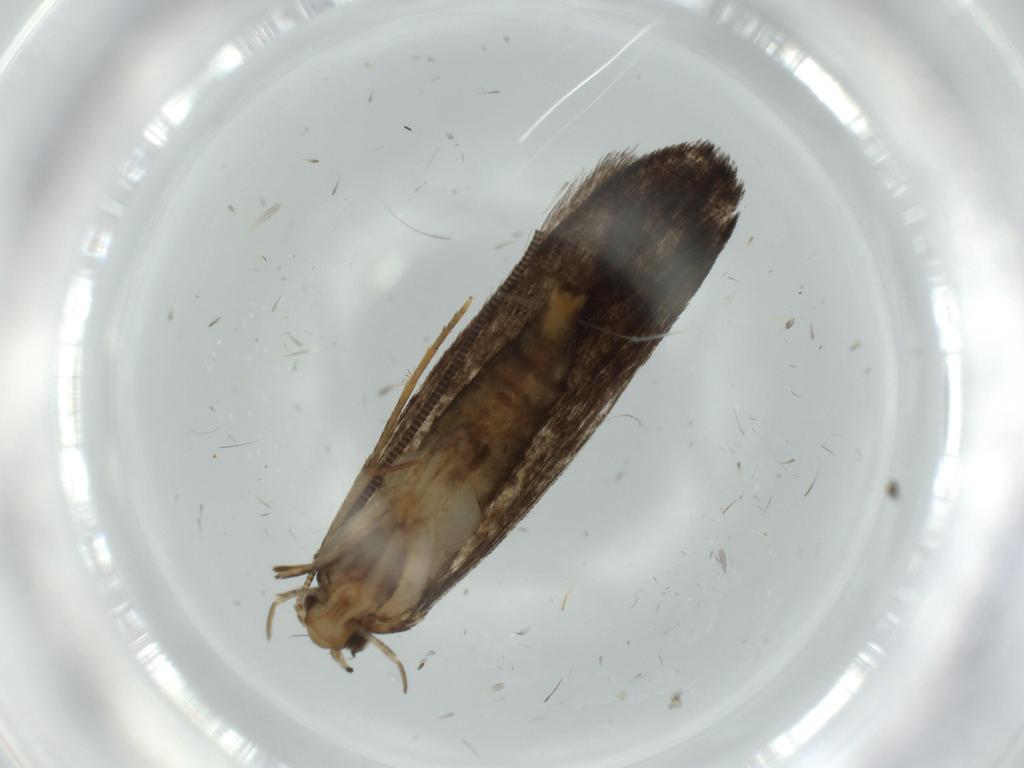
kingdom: Animalia
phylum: Arthropoda
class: Insecta
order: Lepidoptera
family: Tineidae
